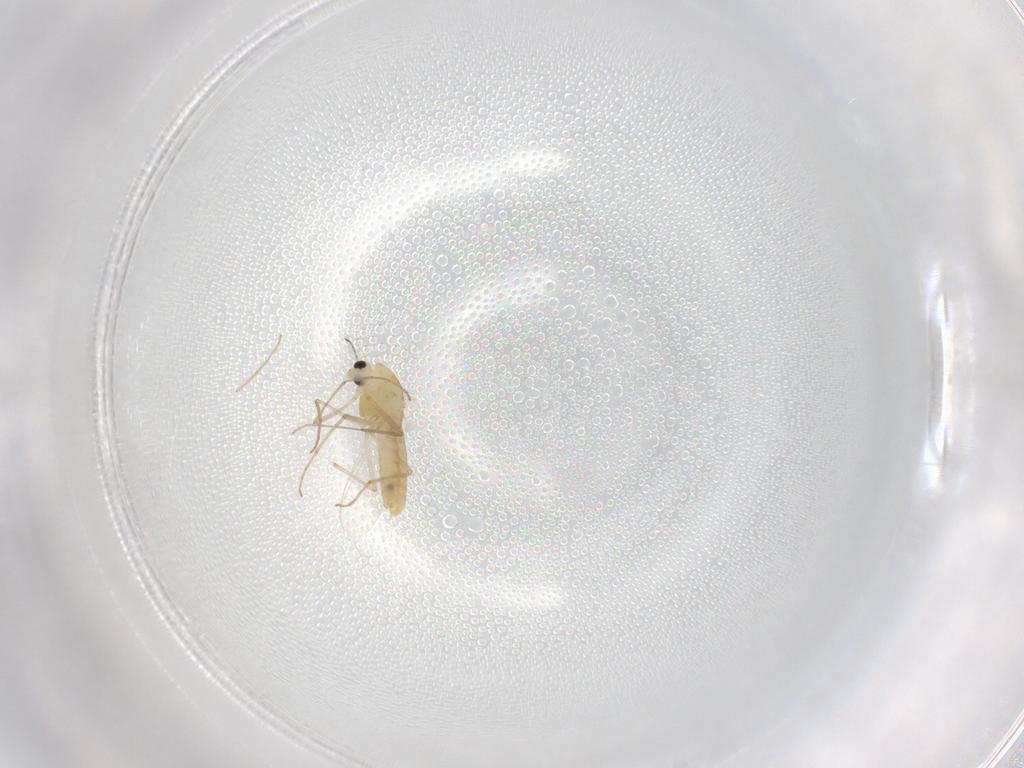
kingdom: Animalia
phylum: Arthropoda
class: Insecta
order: Diptera
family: Chironomidae
